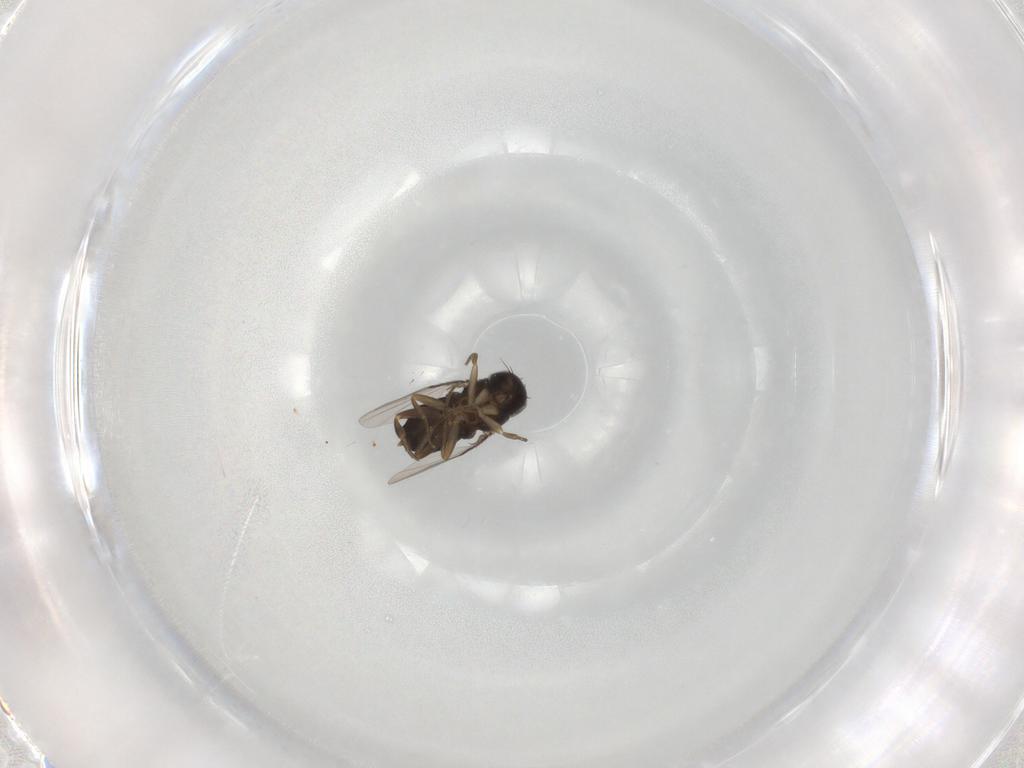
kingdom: Animalia
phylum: Arthropoda
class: Insecta
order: Diptera
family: Phoridae
